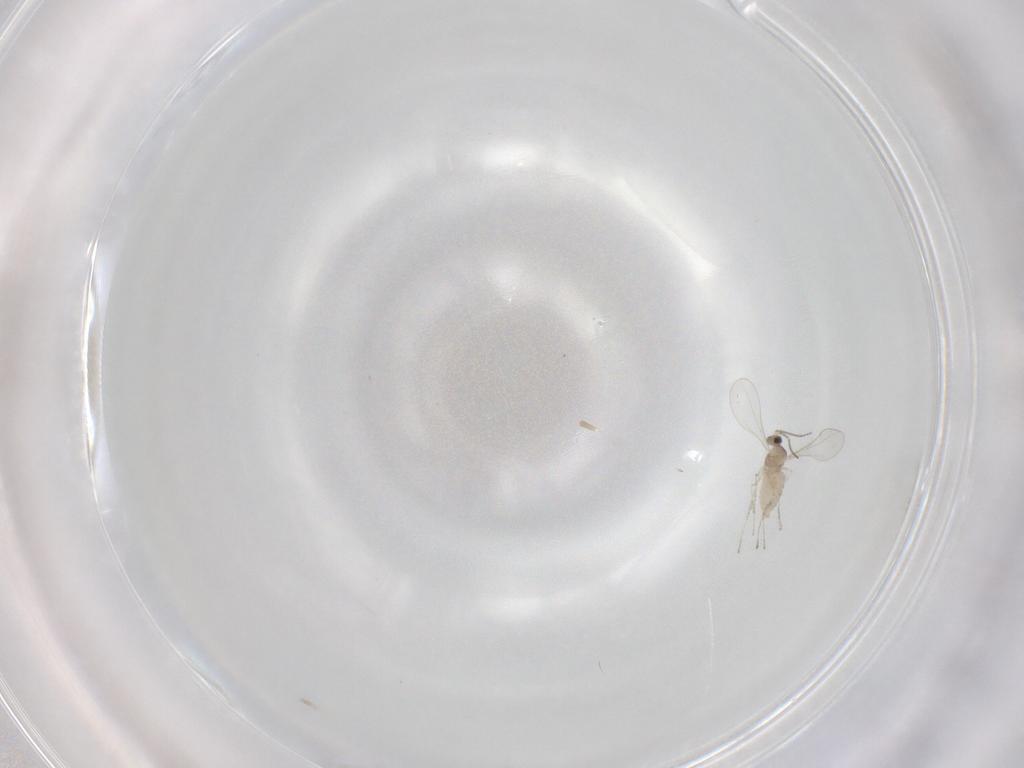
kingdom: Animalia
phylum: Arthropoda
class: Insecta
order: Diptera
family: Cecidomyiidae
